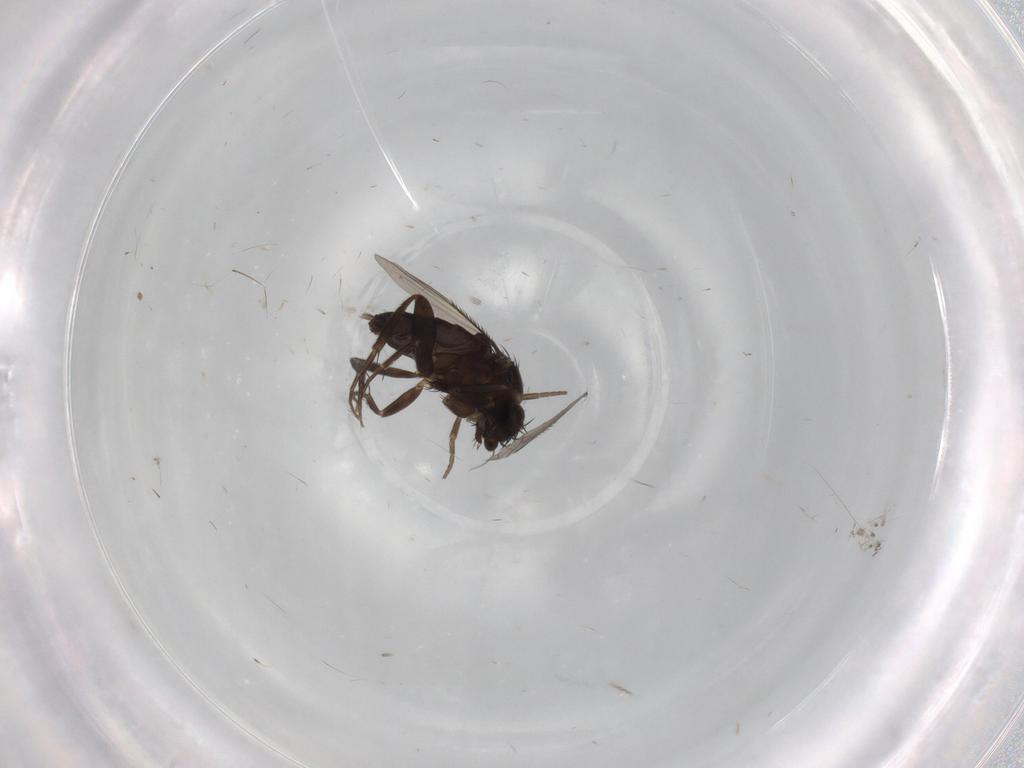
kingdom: Animalia
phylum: Arthropoda
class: Insecta
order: Diptera
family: Phoridae
